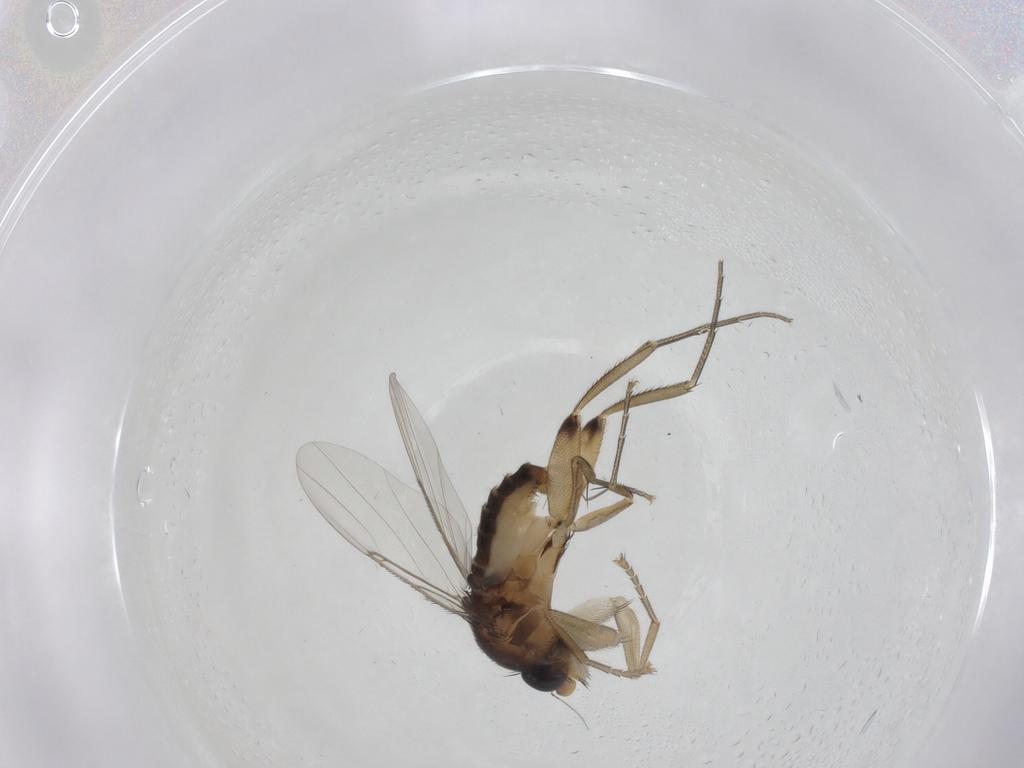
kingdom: Animalia
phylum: Arthropoda
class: Insecta
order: Diptera
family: Phoridae
